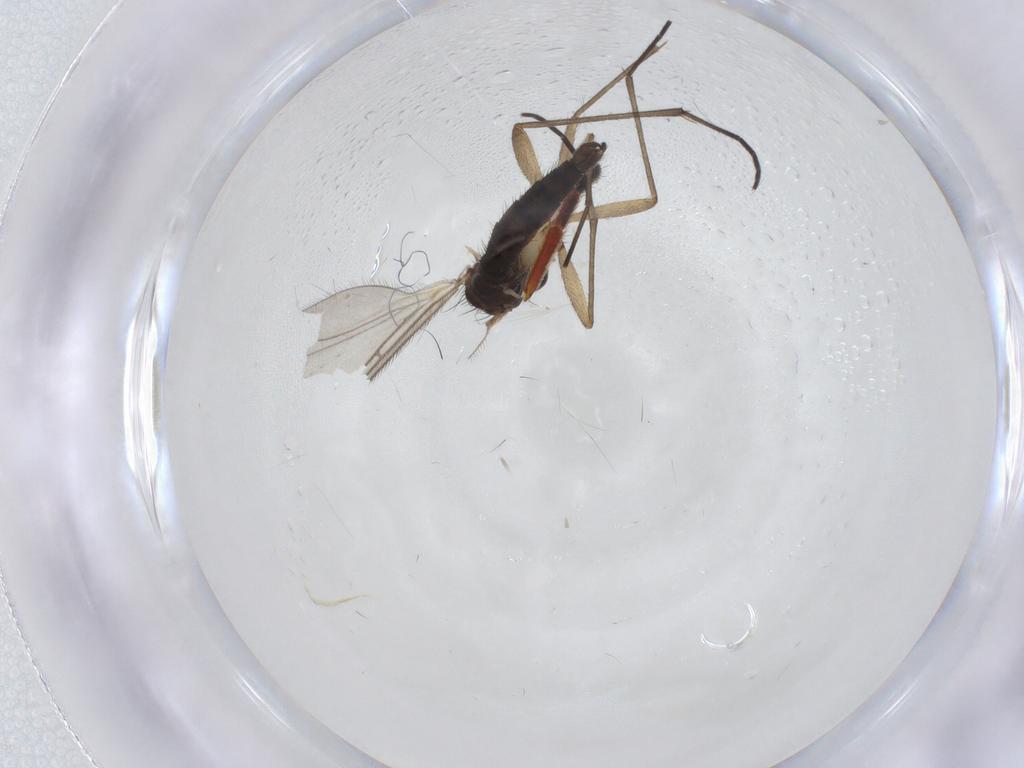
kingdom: Animalia
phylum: Arthropoda
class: Insecta
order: Diptera
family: Sciaridae
